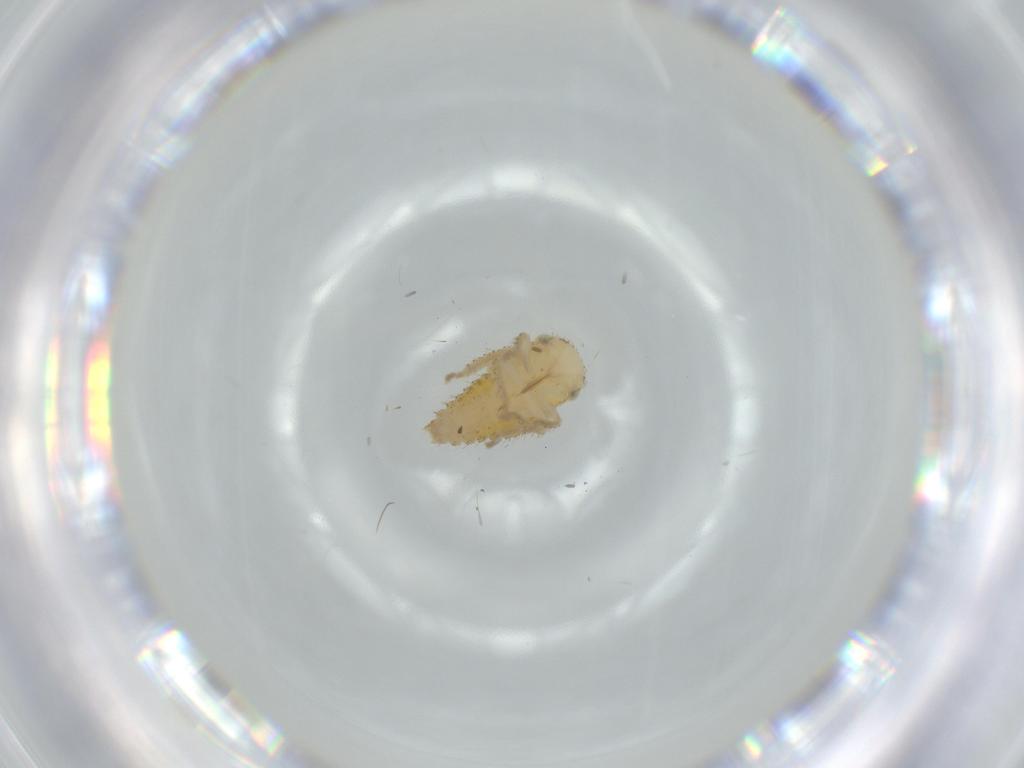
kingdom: Animalia
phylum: Arthropoda
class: Insecta
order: Hemiptera
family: Cicadellidae
